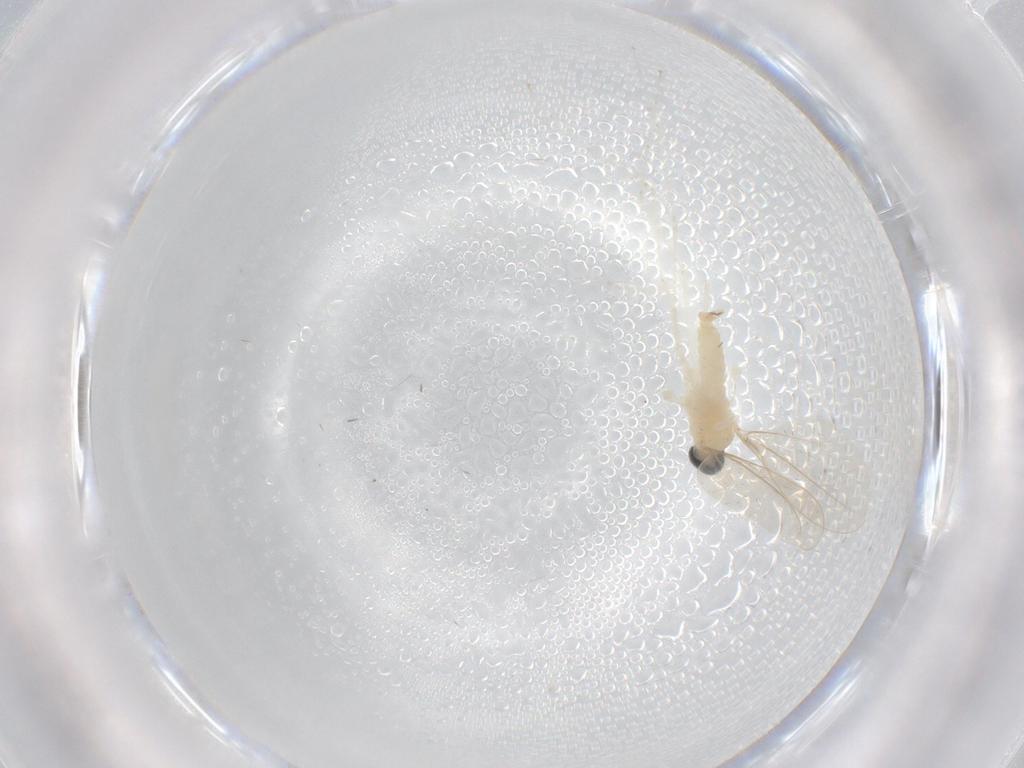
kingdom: Animalia
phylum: Arthropoda
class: Insecta
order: Diptera
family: Cecidomyiidae
